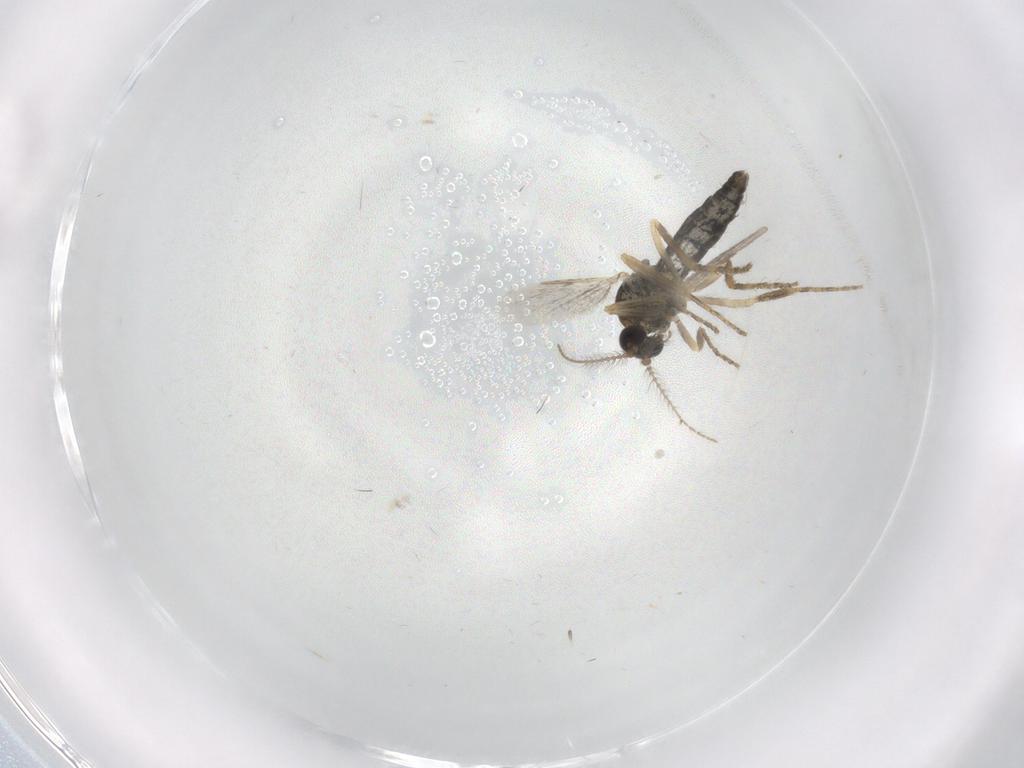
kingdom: Animalia
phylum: Arthropoda
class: Insecta
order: Diptera
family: Ceratopogonidae
